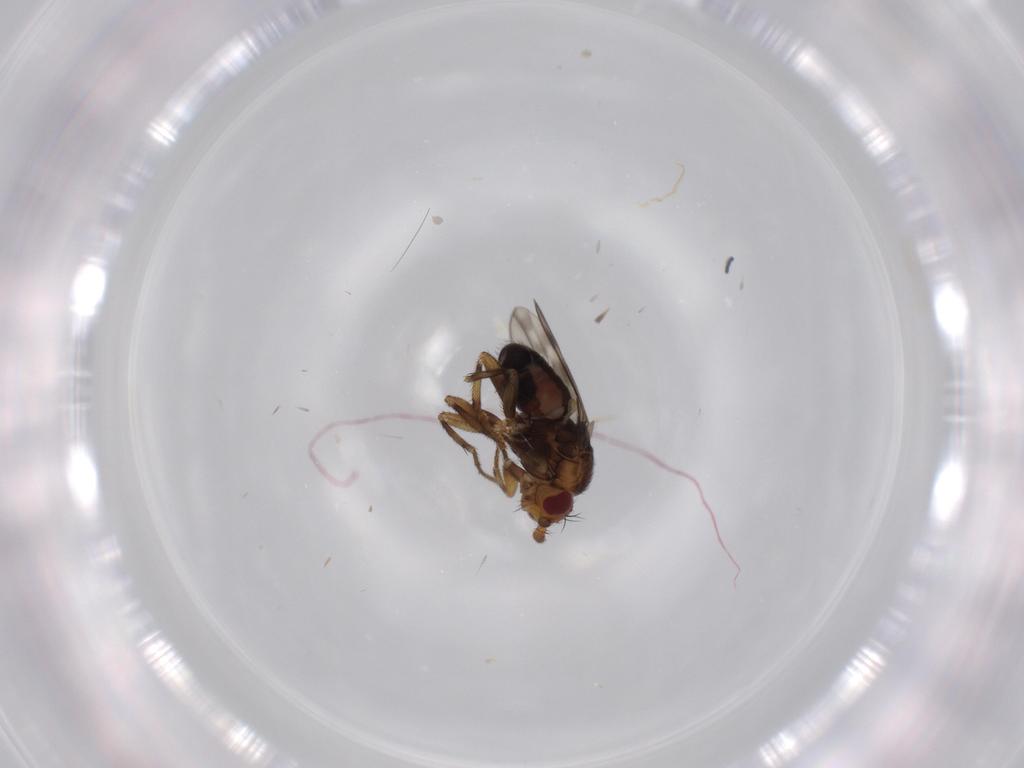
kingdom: Animalia
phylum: Arthropoda
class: Insecta
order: Diptera
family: Sphaeroceridae
